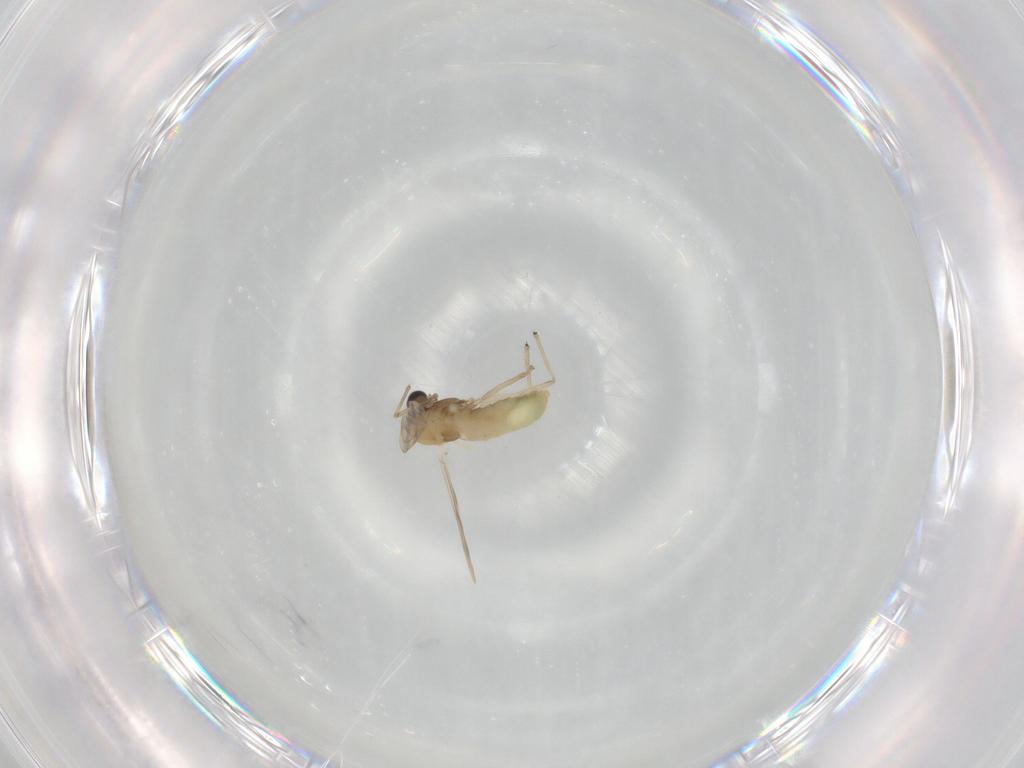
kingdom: Animalia
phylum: Arthropoda
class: Insecta
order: Diptera
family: Chironomidae
